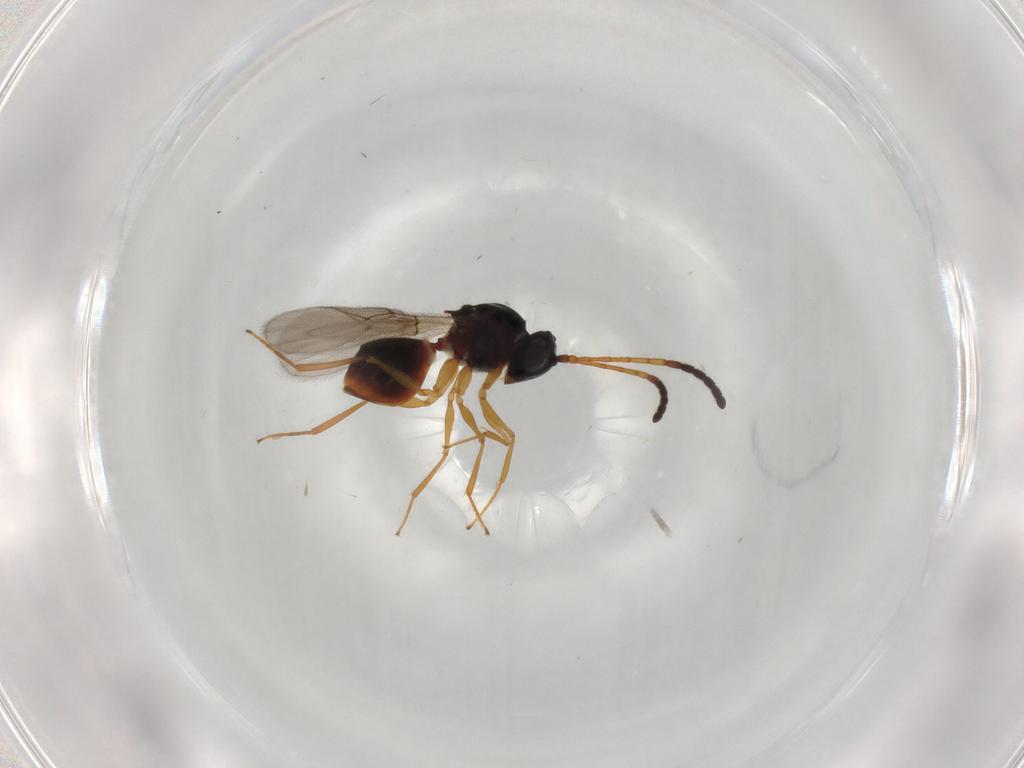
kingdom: Animalia
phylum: Arthropoda
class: Insecta
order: Hymenoptera
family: Figitidae
